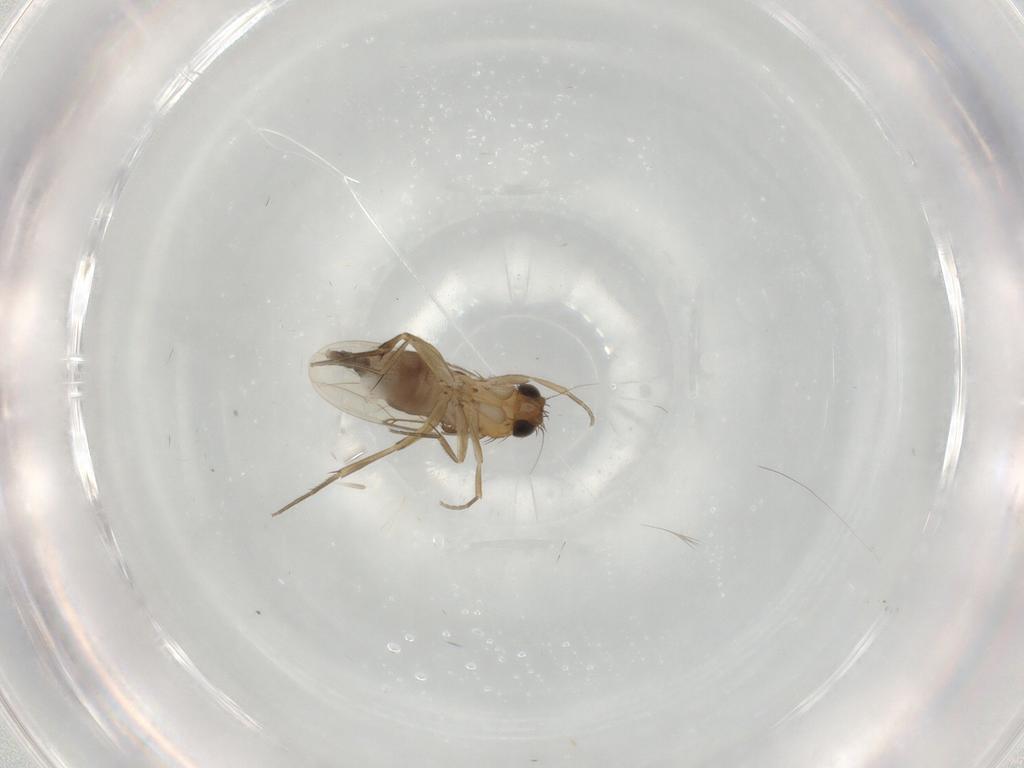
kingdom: Animalia
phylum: Arthropoda
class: Insecta
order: Diptera
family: Phoridae
